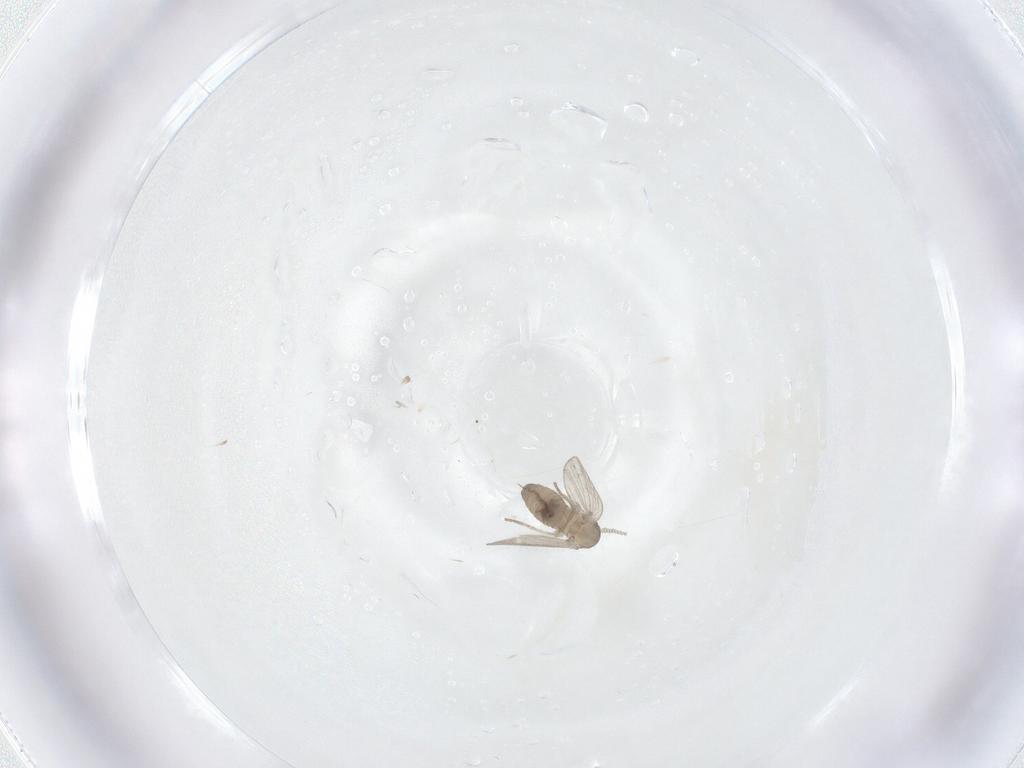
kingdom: Animalia
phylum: Arthropoda
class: Insecta
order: Diptera
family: Psychodidae
